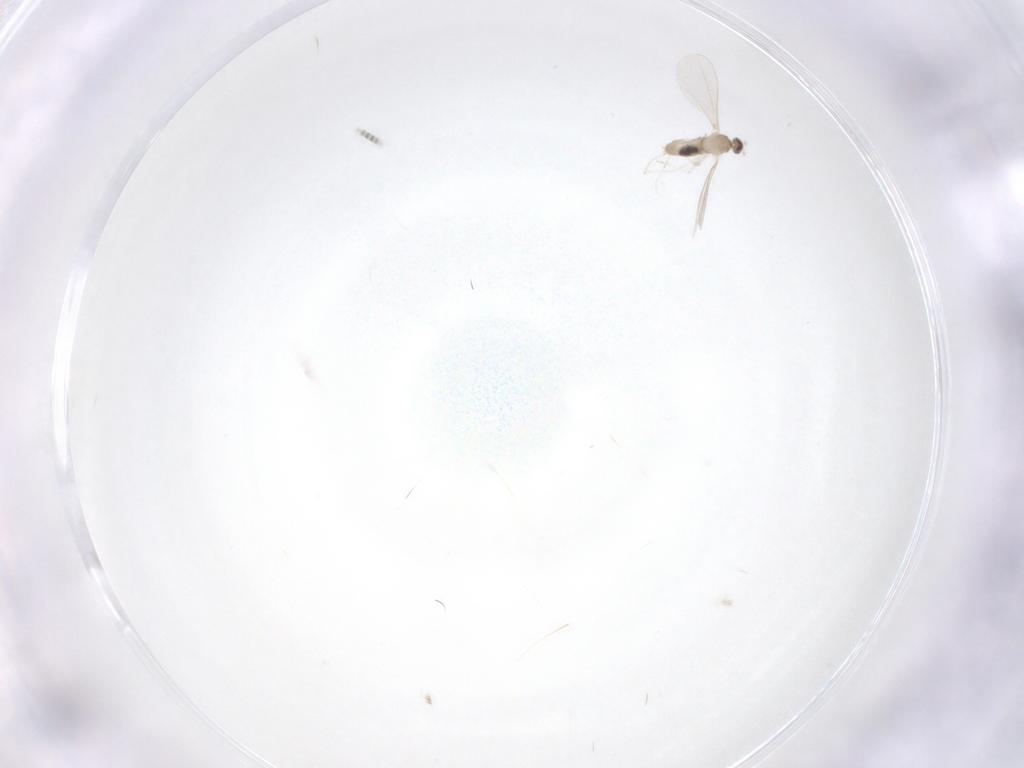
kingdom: Animalia
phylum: Arthropoda
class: Insecta
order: Diptera
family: Cecidomyiidae
